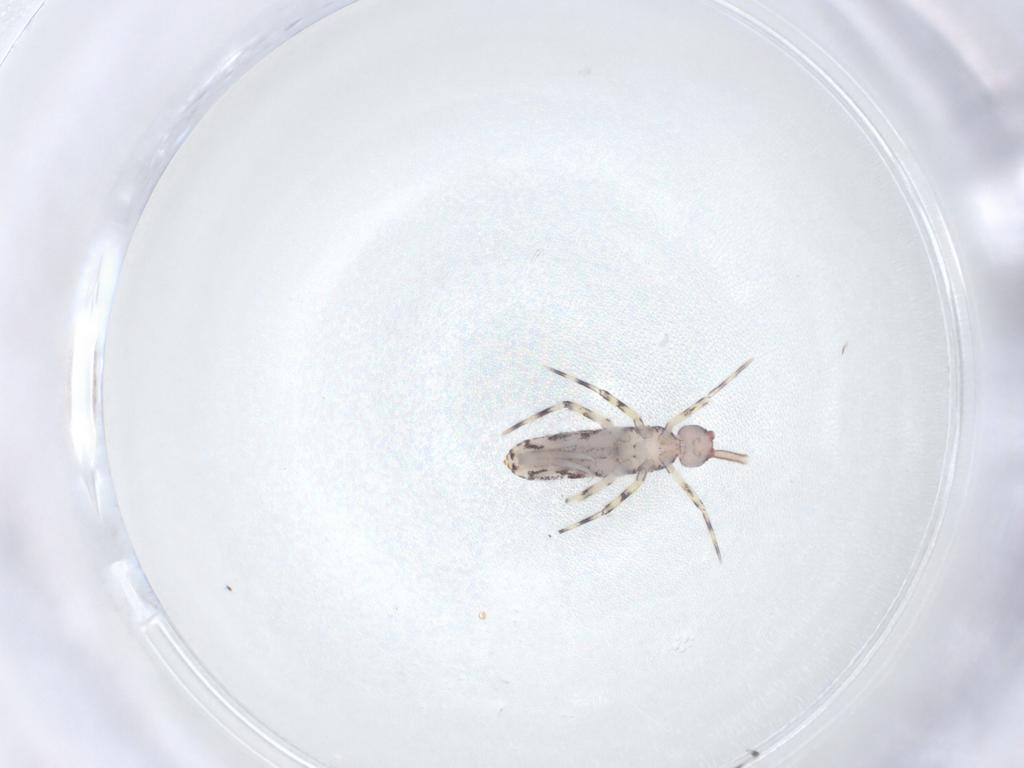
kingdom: Animalia
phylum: Arthropoda
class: Collembola
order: Entomobryomorpha
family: Entomobryidae
